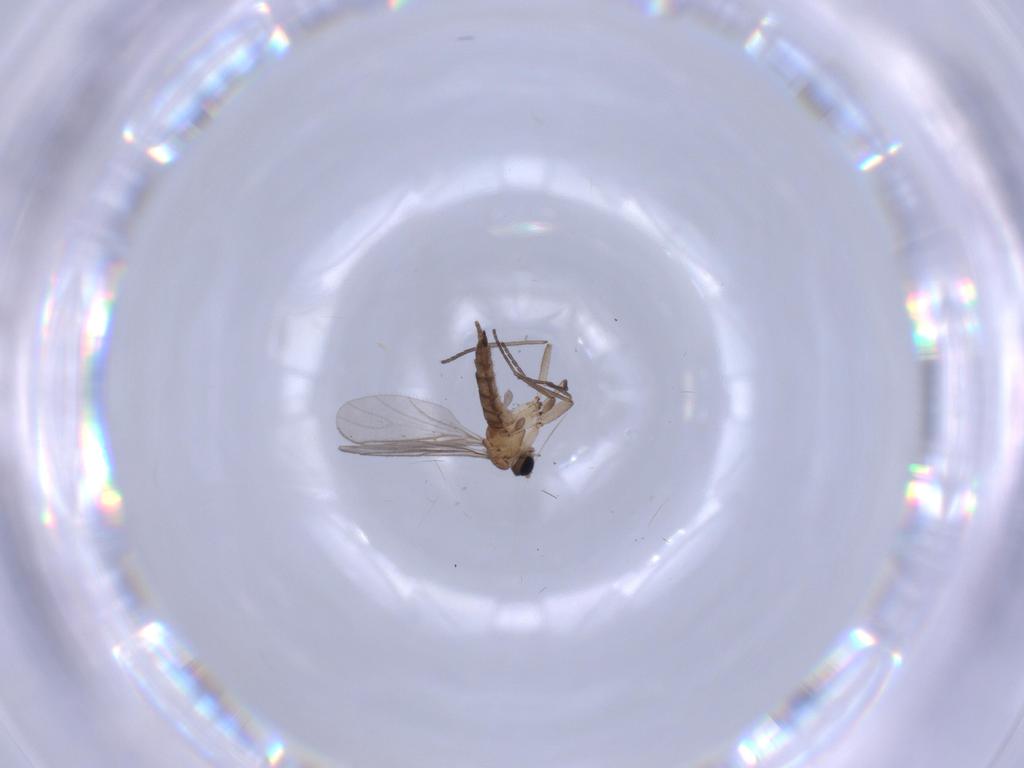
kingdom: Animalia
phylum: Arthropoda
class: Insecta
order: Diptera
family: Sciaridae
